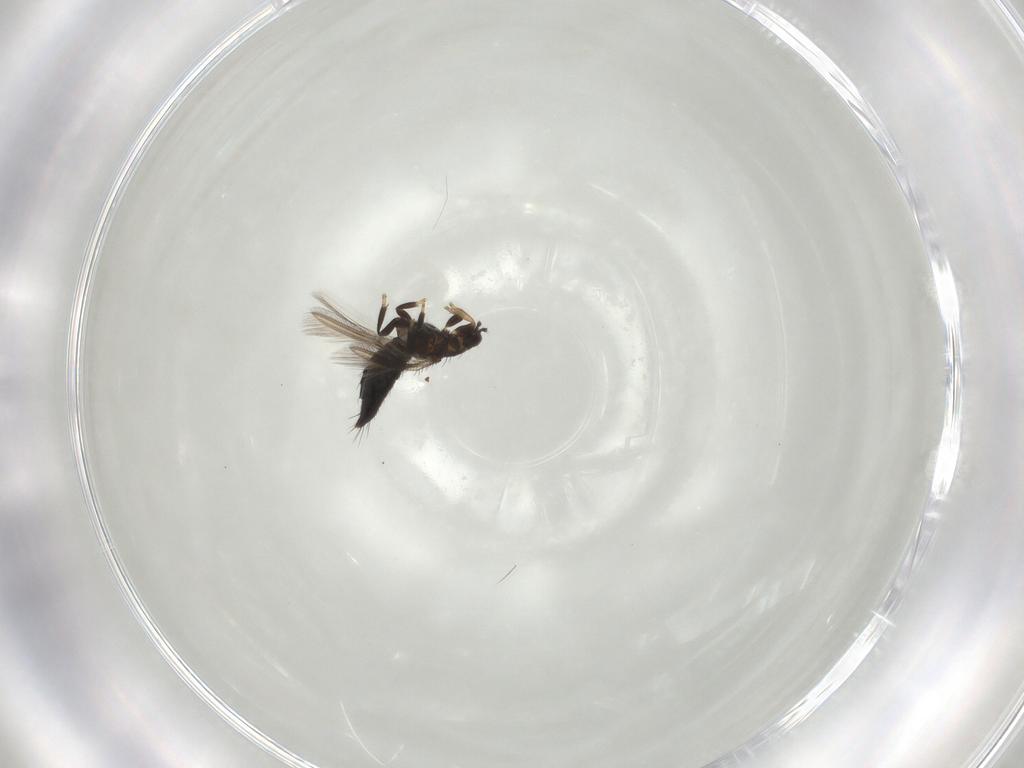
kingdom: Animalia
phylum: Arthropoda
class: Insecta
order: Thysanoptera
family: Thripidae
